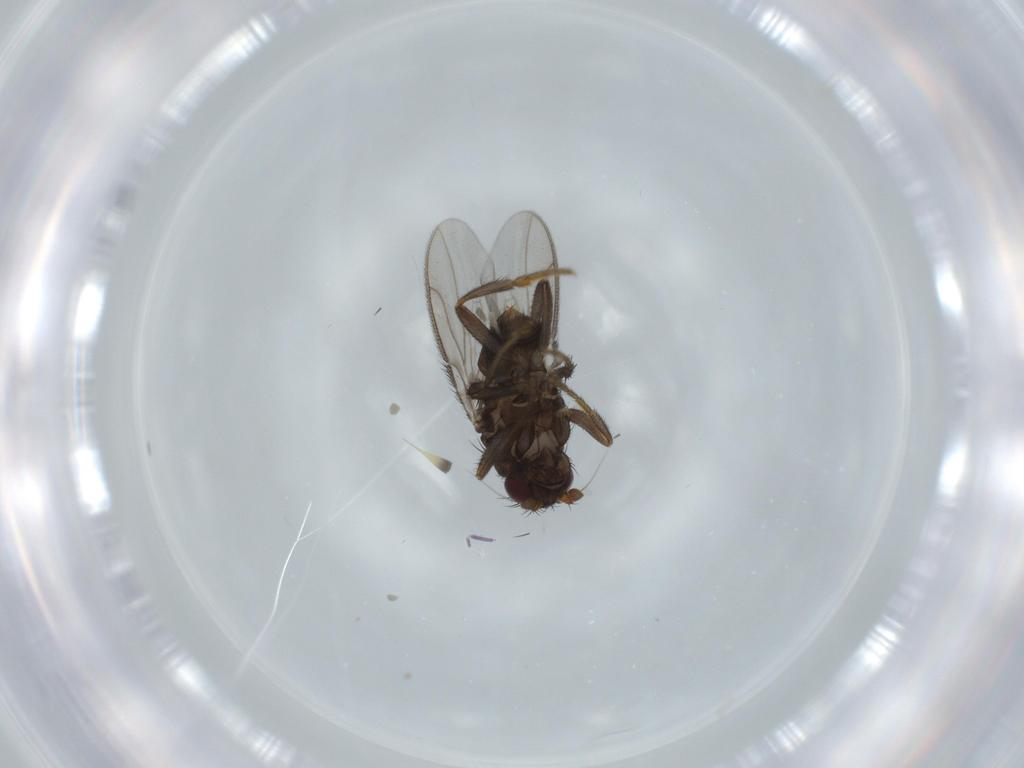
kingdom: Animalia
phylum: Arthropoda
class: Insecta
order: Diptera
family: Sphaeroceridae
